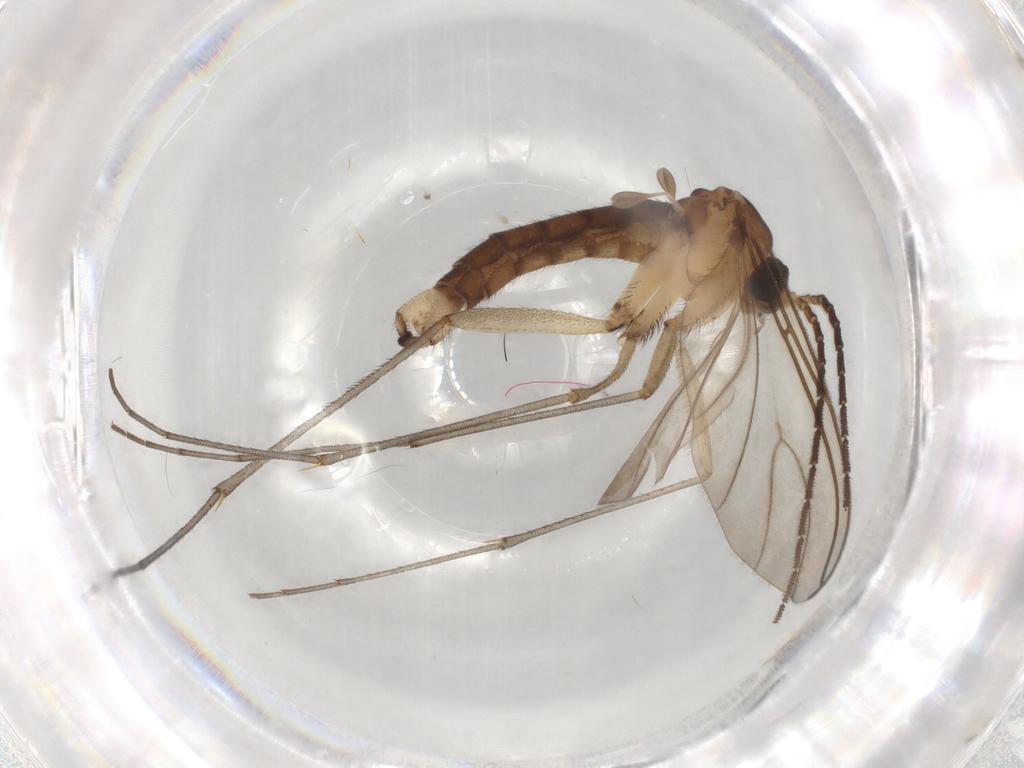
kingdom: Animalia
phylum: Arthropoda
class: Insecta
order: Diptera
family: Sciaridae
